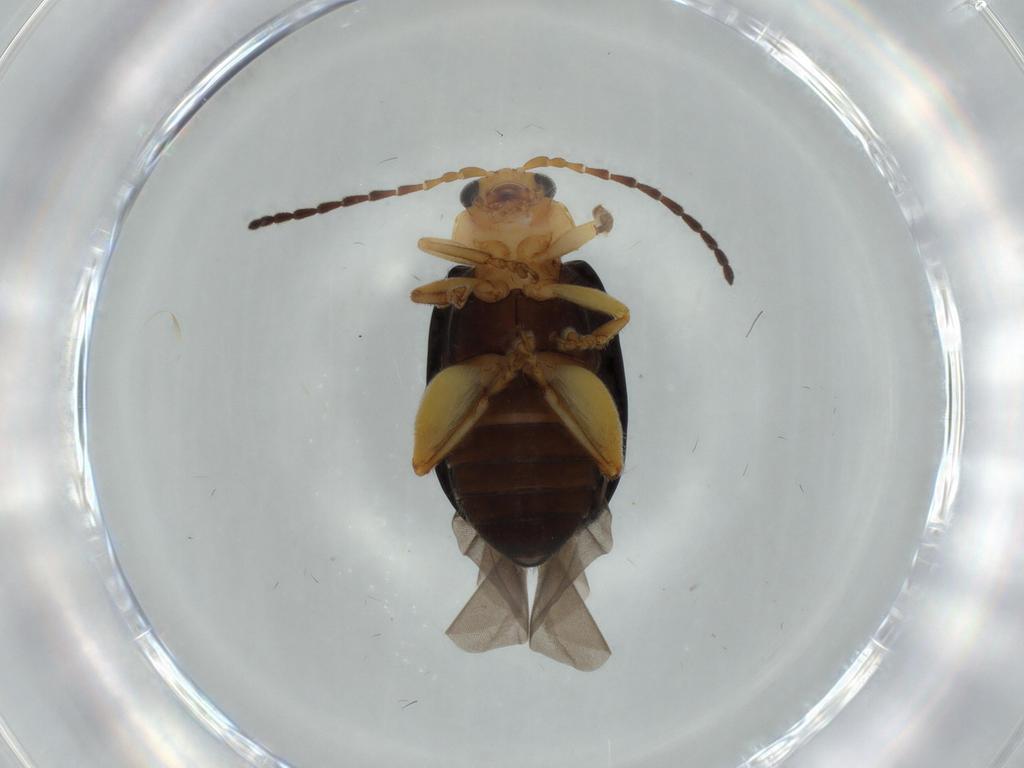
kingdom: Animalia
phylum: Arthropoda
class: Insecta
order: Coleoptera
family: Chrysomelidae
